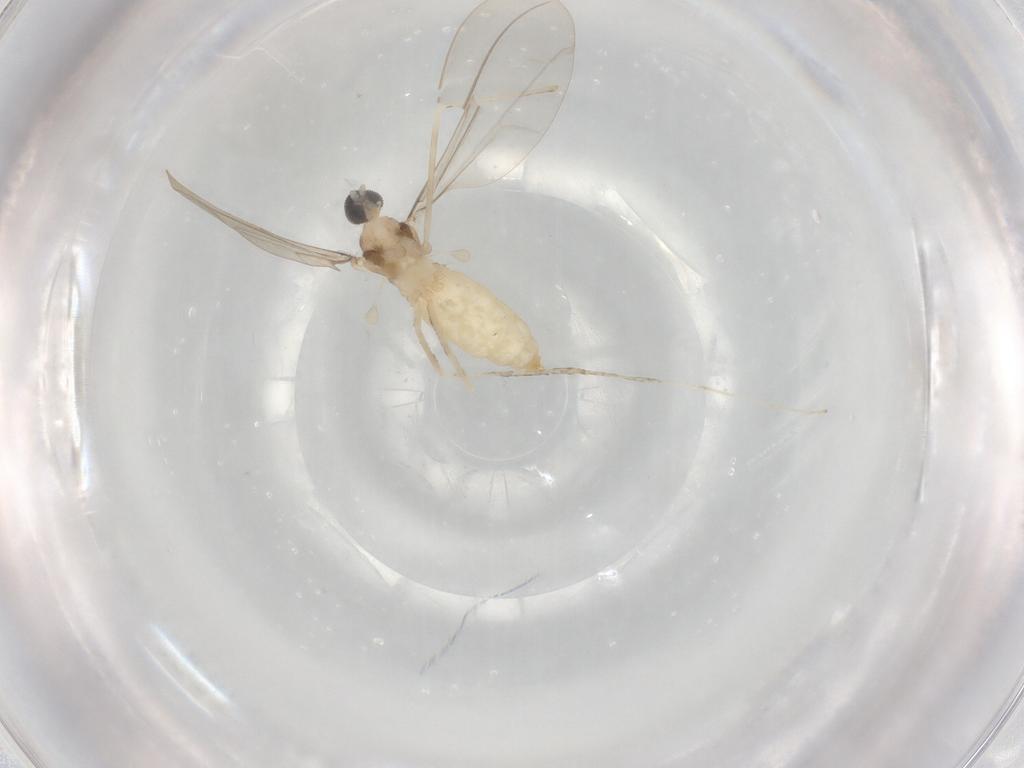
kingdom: Animalia
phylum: Arthropoda
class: Insecta
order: Diptera
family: Cecidomyiidae
